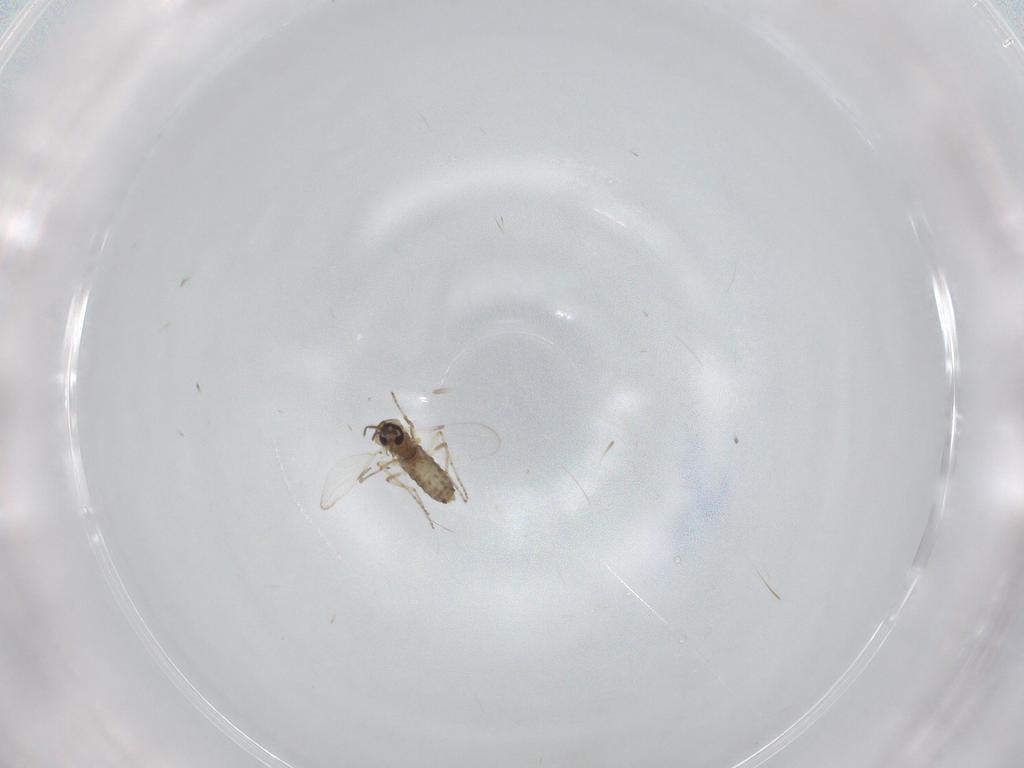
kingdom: Animalia
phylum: Arthropoda
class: Insecta
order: Diptera
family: Ceratopogonidae
